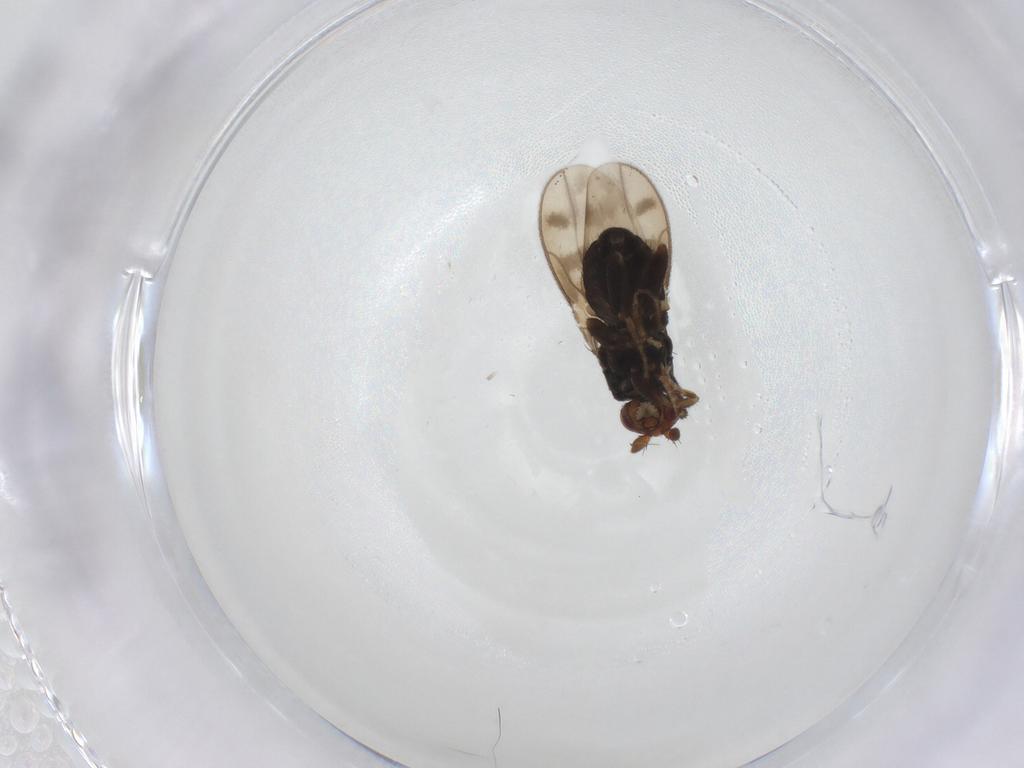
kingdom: Animalia
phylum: Arthropoda
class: Insecta
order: Diptera
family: Sphaeroceridae
